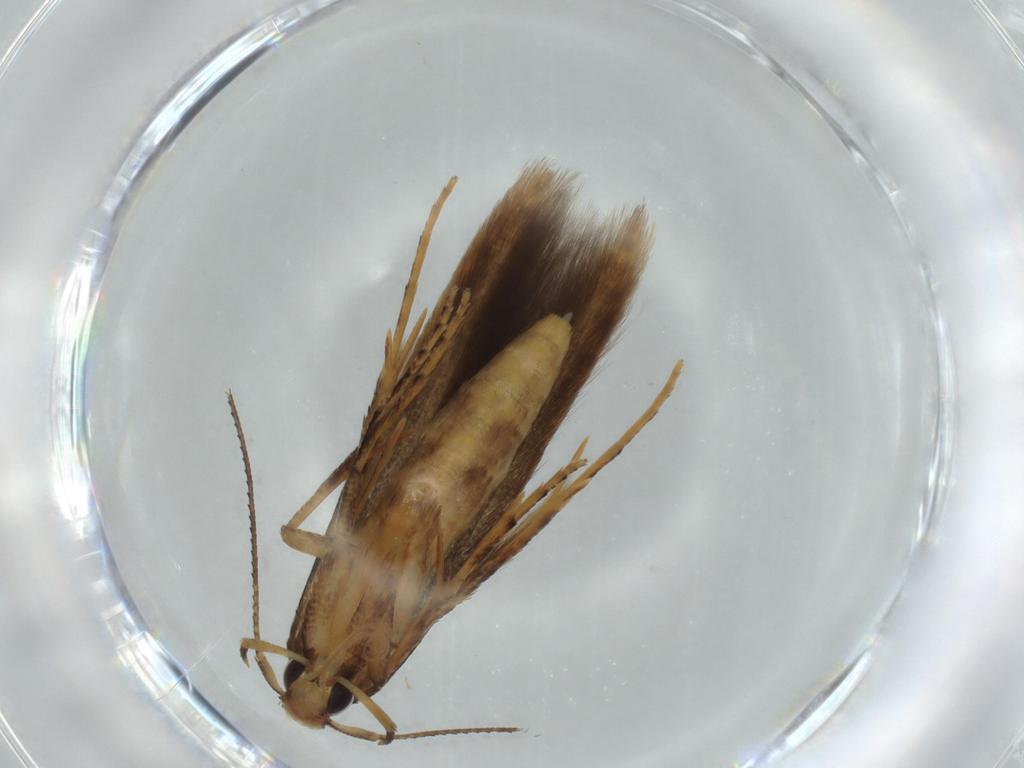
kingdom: Animalia
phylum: Arthropoda
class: Insecta
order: Lepidoptera
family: Heliodinidae
